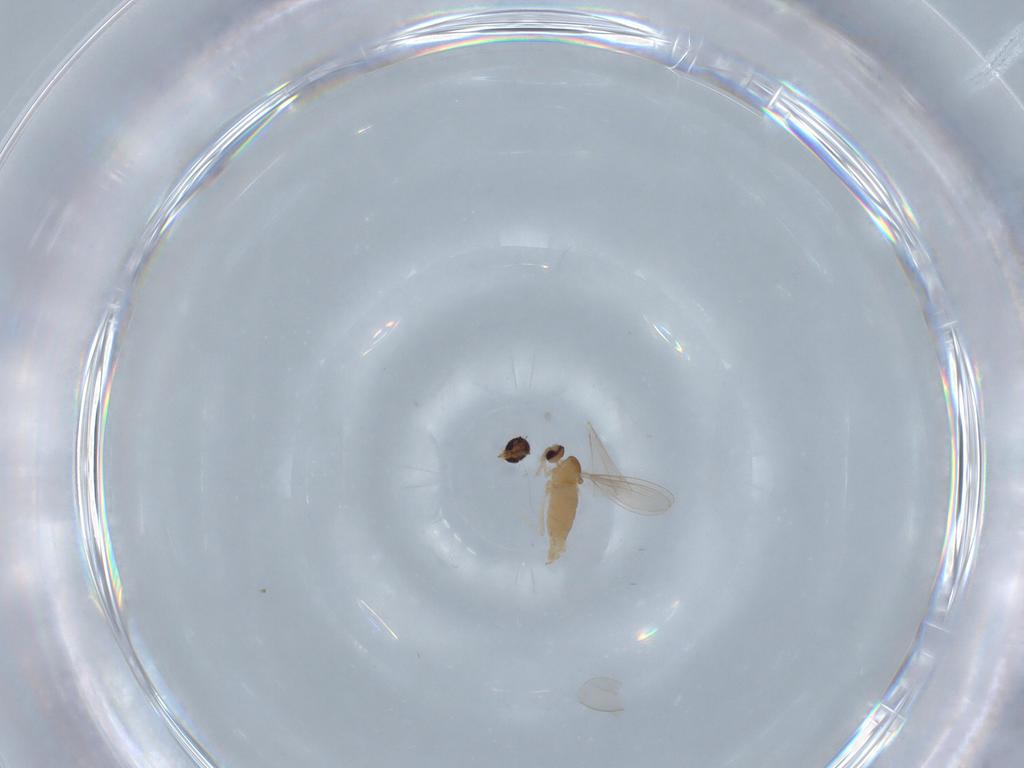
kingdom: Animalia
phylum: Arthropoda
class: Insecta
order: Diptera
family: Cecidomyiidae
